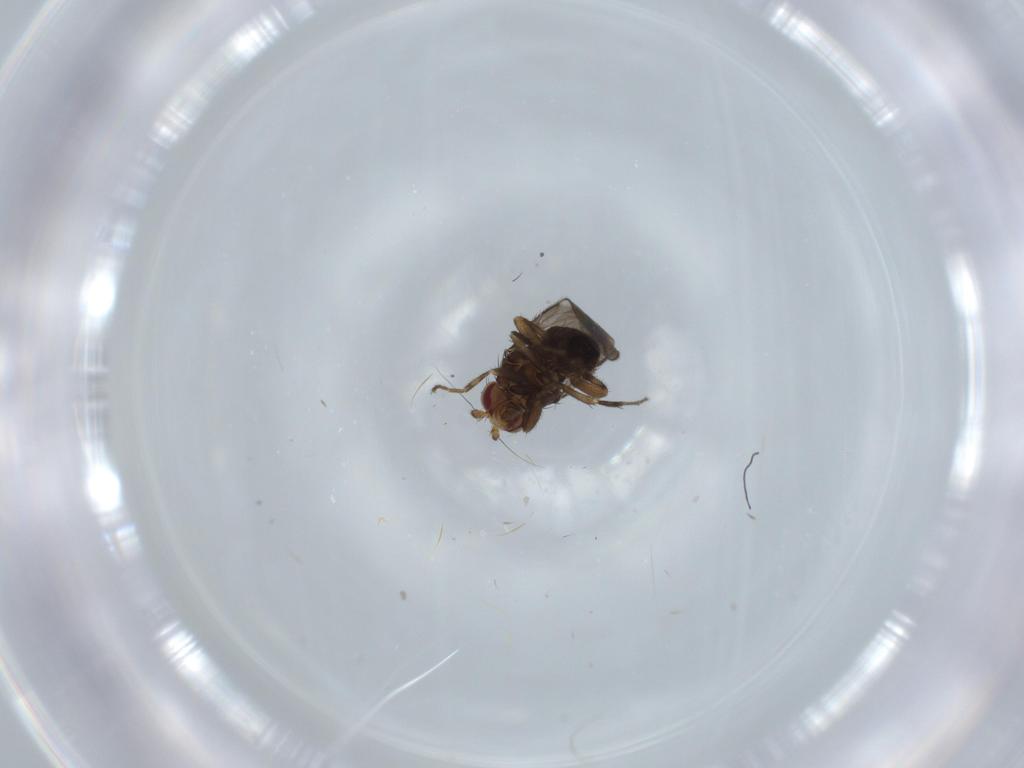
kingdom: Animalia
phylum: Arthropoda
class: Insecta
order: Diptera
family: Sphaeroceridae
